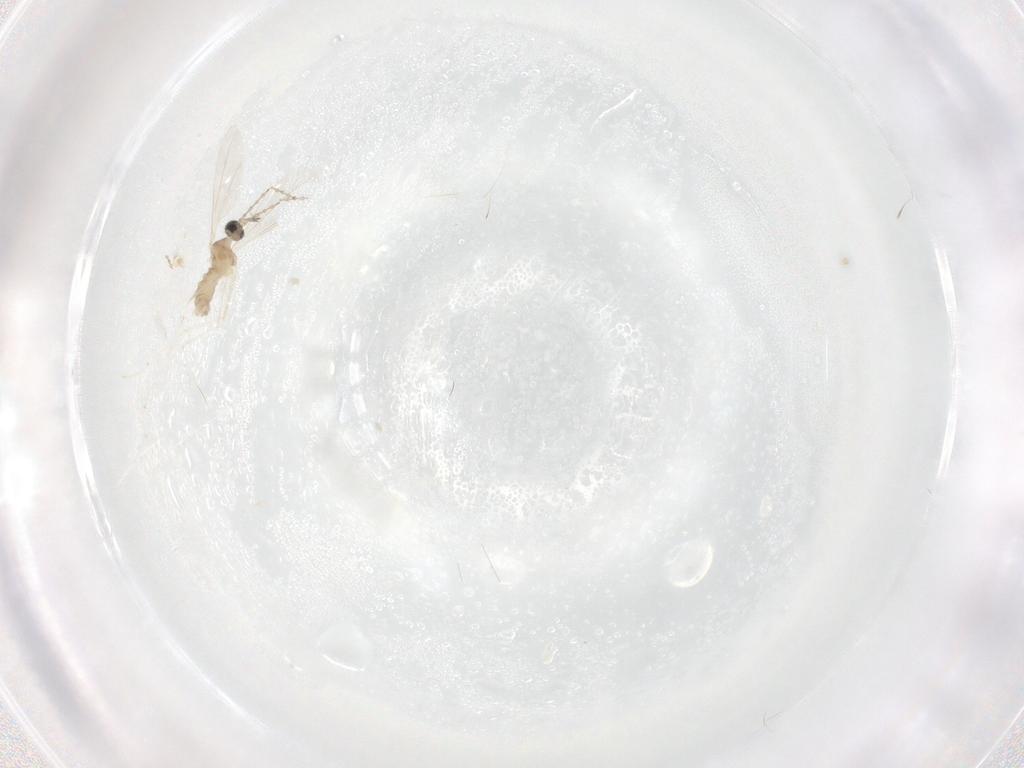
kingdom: Animalia
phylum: Arthropoda
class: Insecta
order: Diptera
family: Cecidomyiidae
